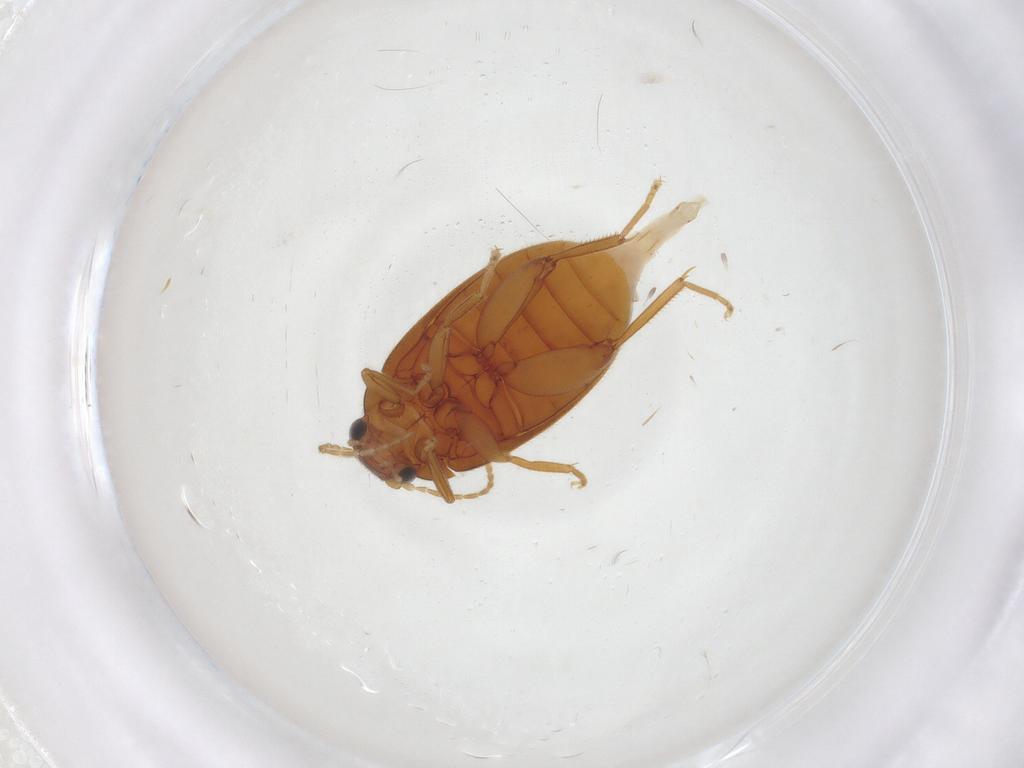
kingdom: Animalia
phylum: Arthropoda
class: Insecta
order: Coleoptera
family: Scirtidae
